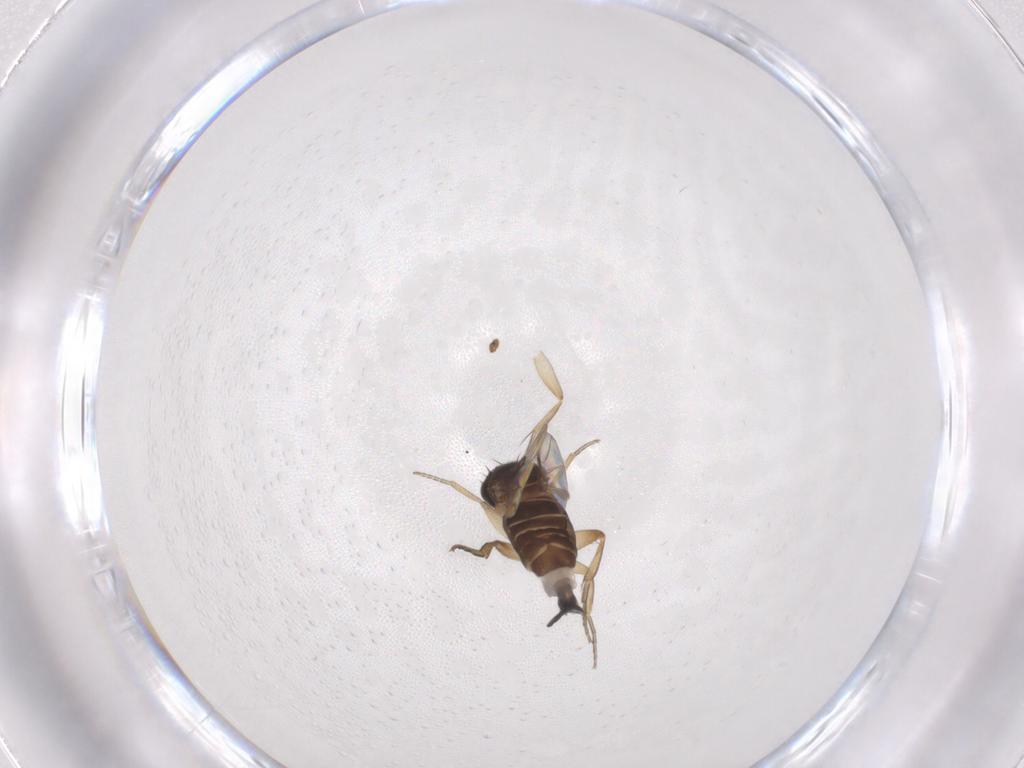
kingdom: Animalia
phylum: Arthropoda
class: Insecta
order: Diptera
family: Phoridae
